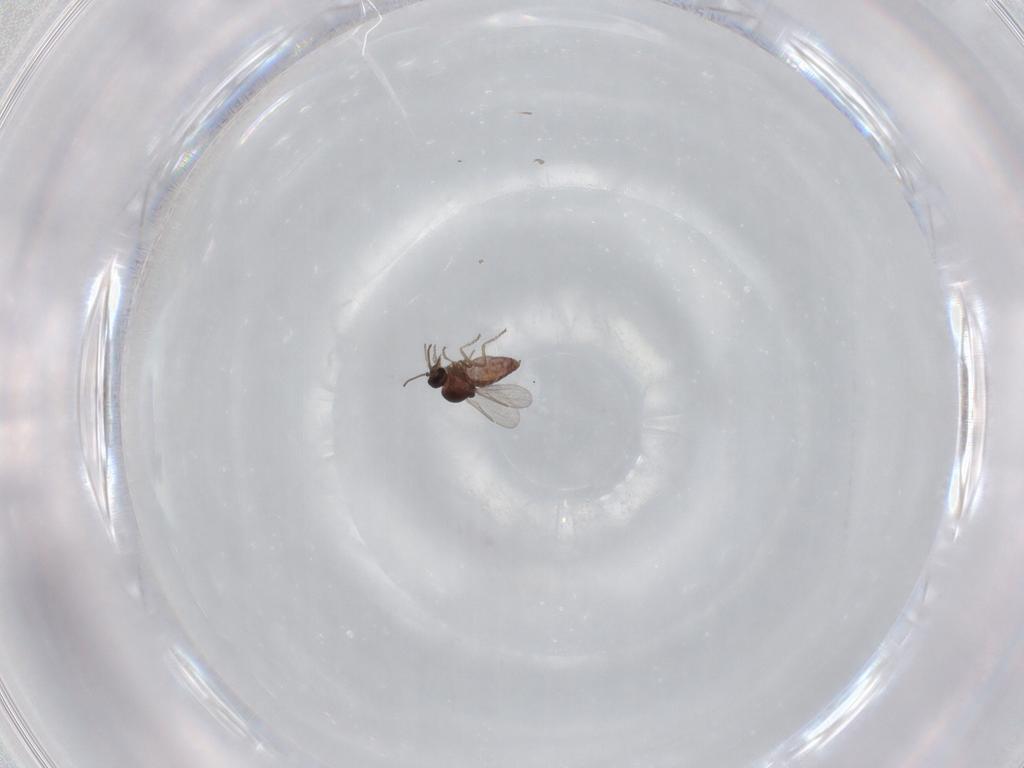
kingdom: Animalia
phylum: Arthropoda
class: Insecta
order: Diptera
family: Ceratopogonidae
